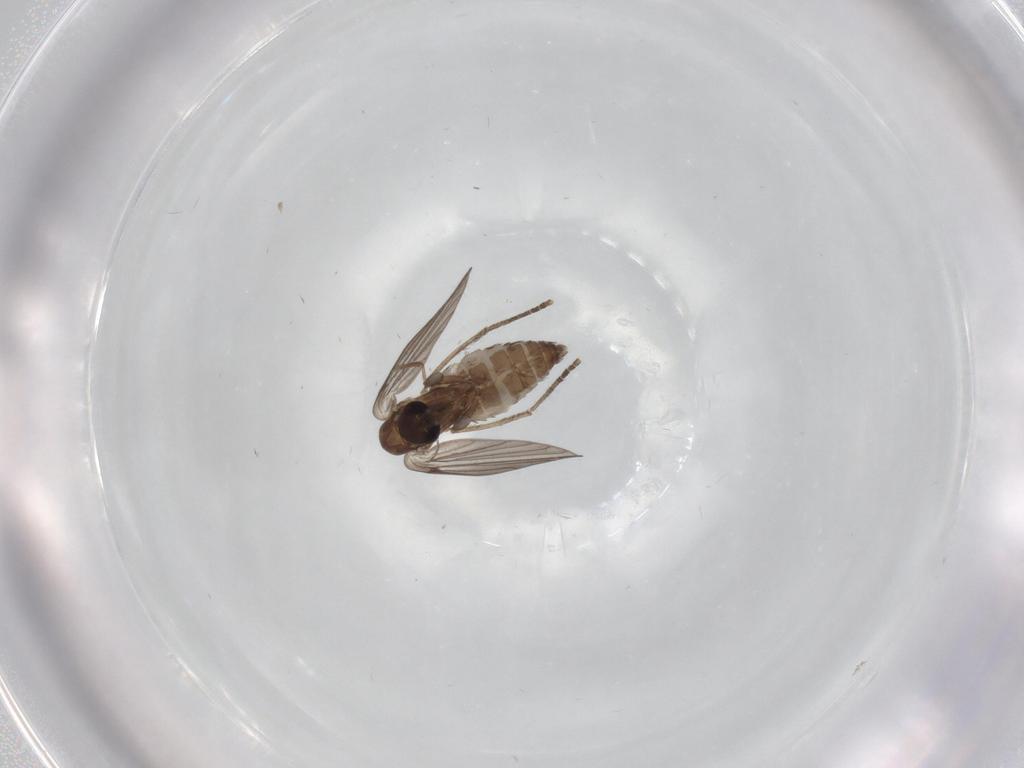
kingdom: Animalia
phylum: Arthropoda
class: Insecta
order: Diptera
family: Psychodidae
